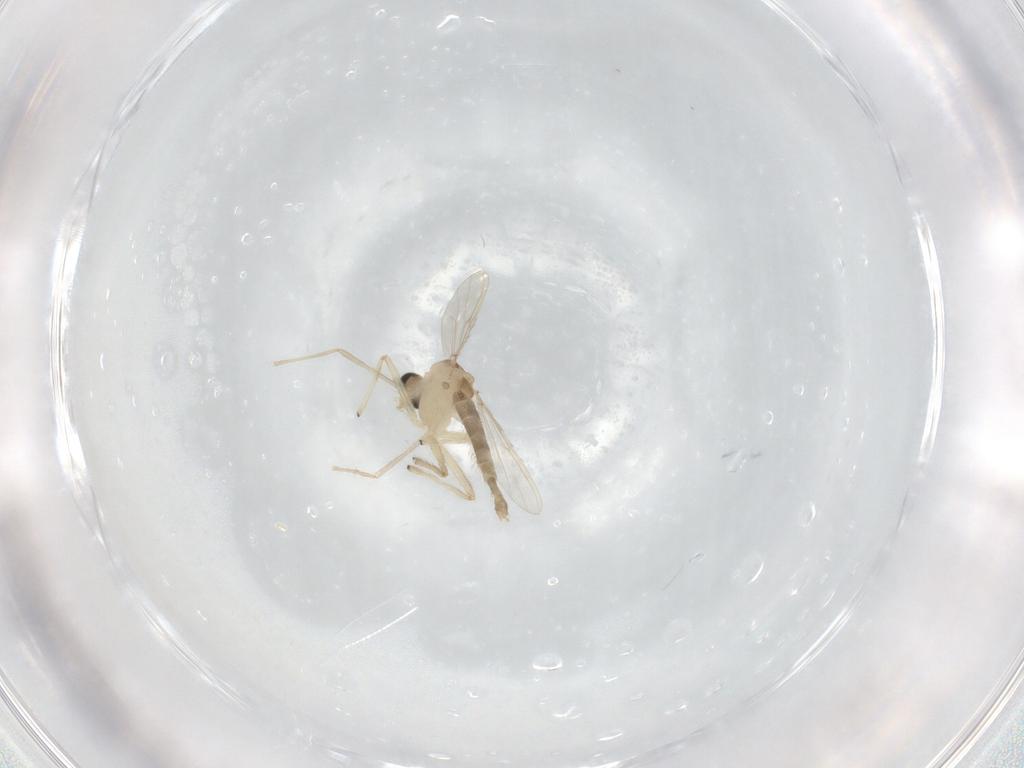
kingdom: Animalia
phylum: Arthropoda
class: Insecta
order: Diptera
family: Chironomidae
